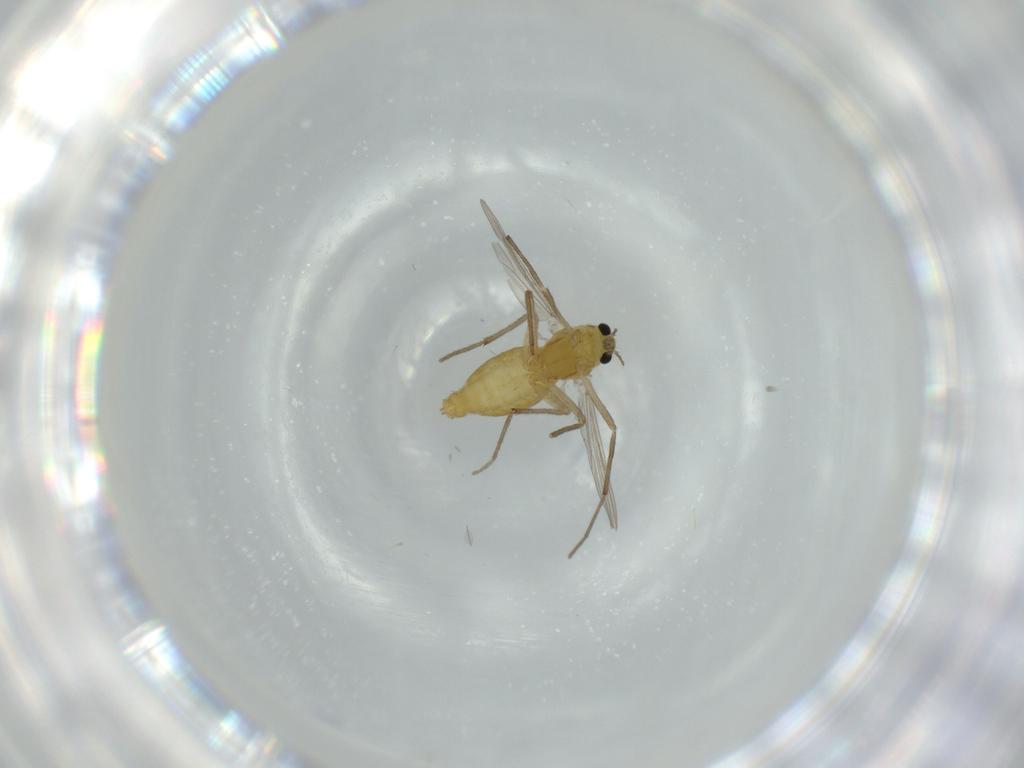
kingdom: Animalia
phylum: Arthropoda
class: Insecta
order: Diptera
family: Chironomidae
